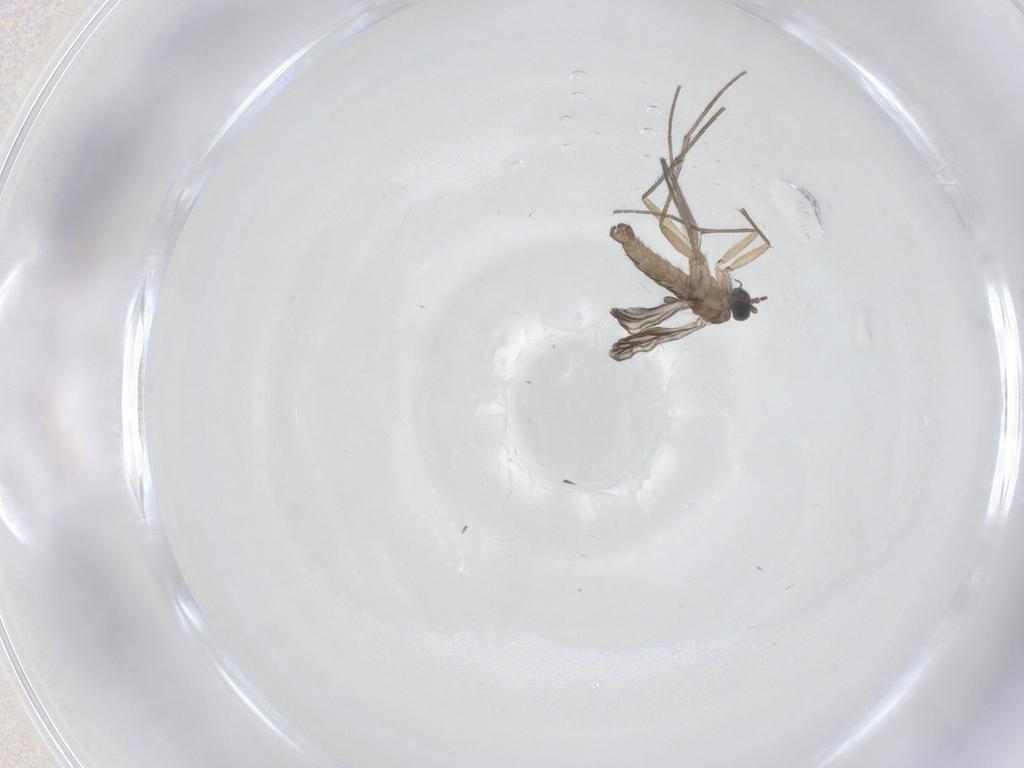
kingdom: Animalia
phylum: Arthropoda
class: Insecta
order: Diptera
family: Sciaridae
